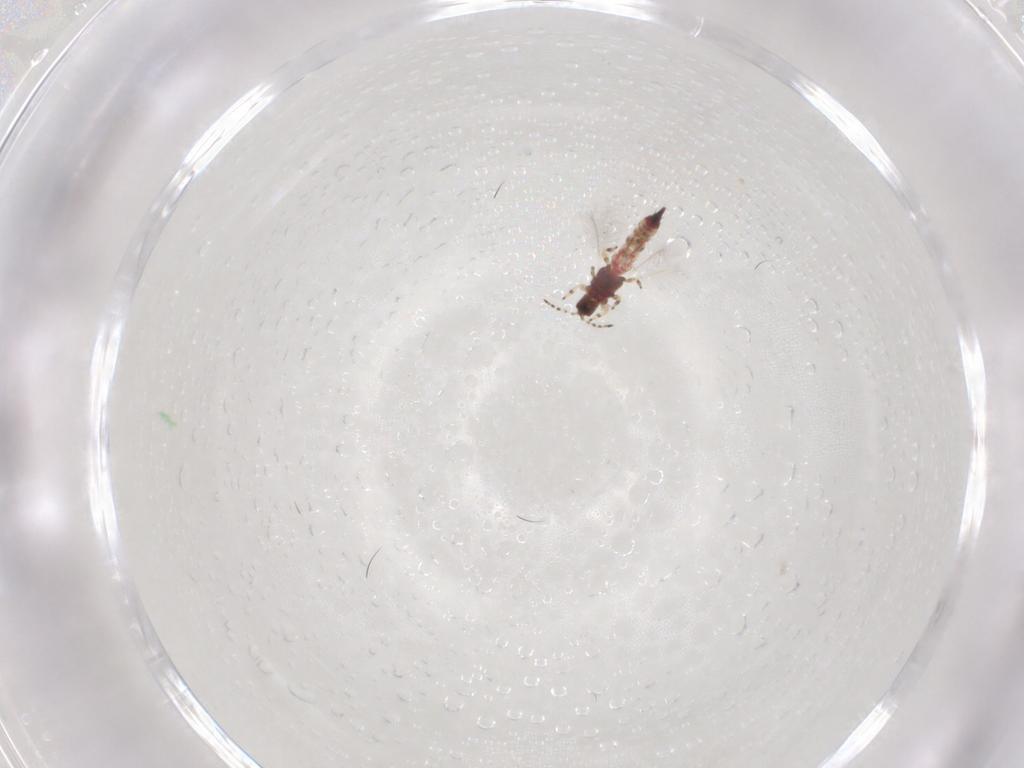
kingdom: Animalia
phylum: Arthropoda
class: Insecta
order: Thysanoptera
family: Phlaeothripidae
